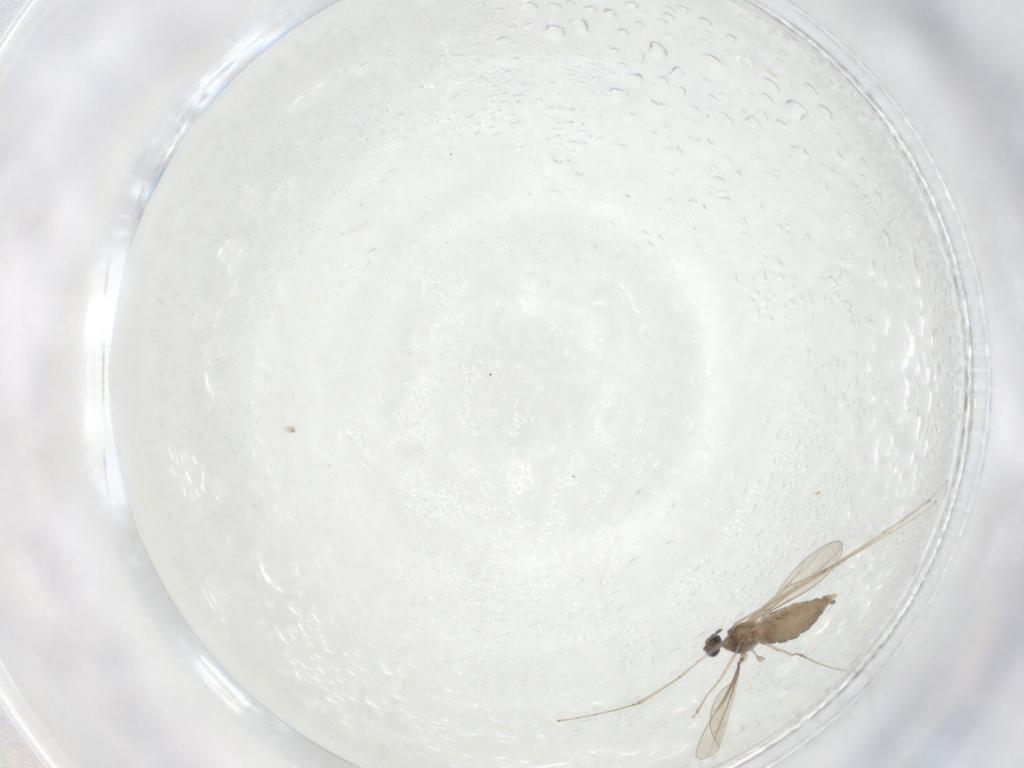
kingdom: Animalia
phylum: Arthropoda
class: Insecta
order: Diptera
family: Cecidomyiidae
